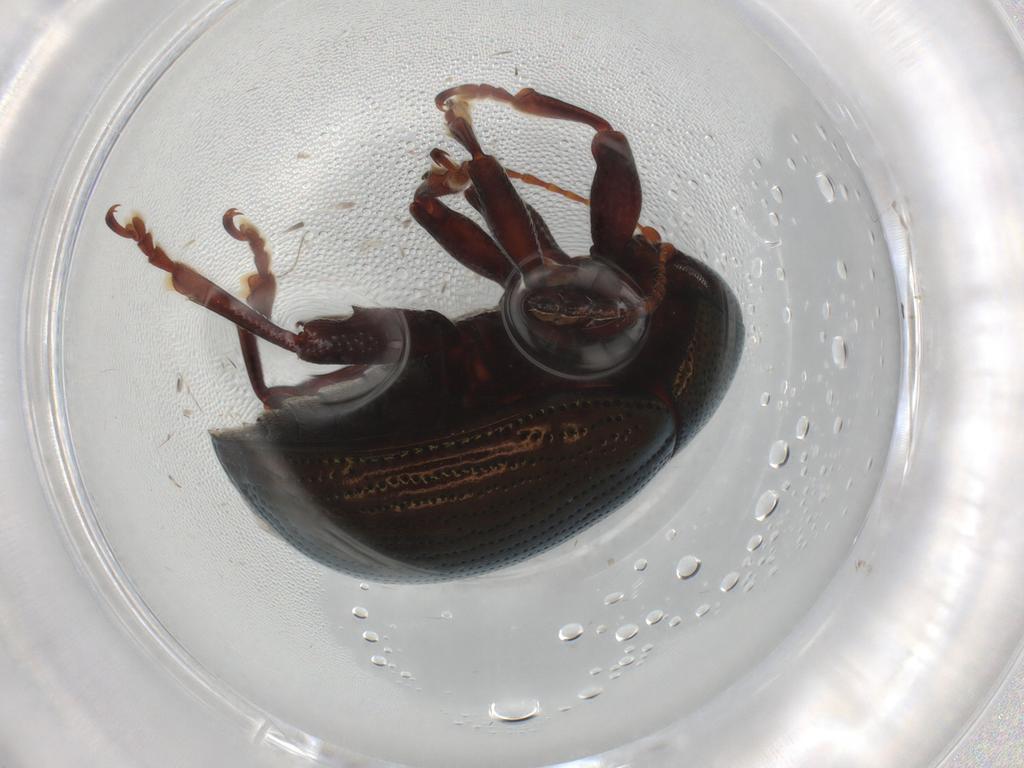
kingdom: Animalia
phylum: Arthropoda
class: Insecta
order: Coleoptera
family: Chrysomelidae
